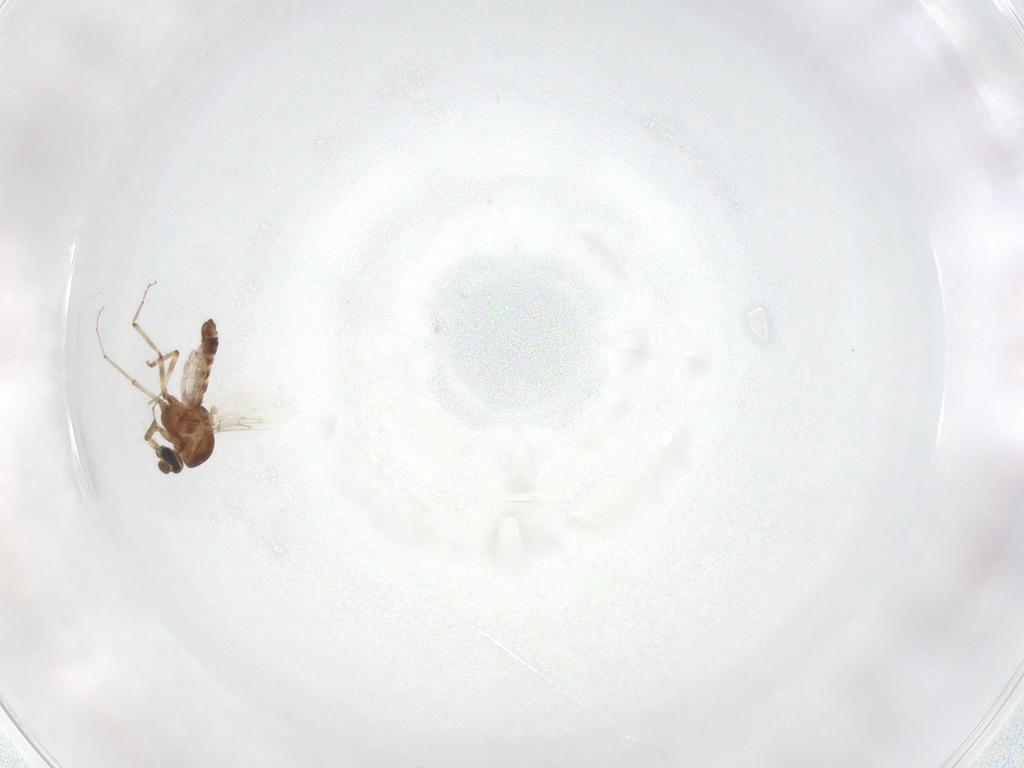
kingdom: Animalia
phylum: Arthropoda
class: Insecta
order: Diptera
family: Ceratopogonidae
